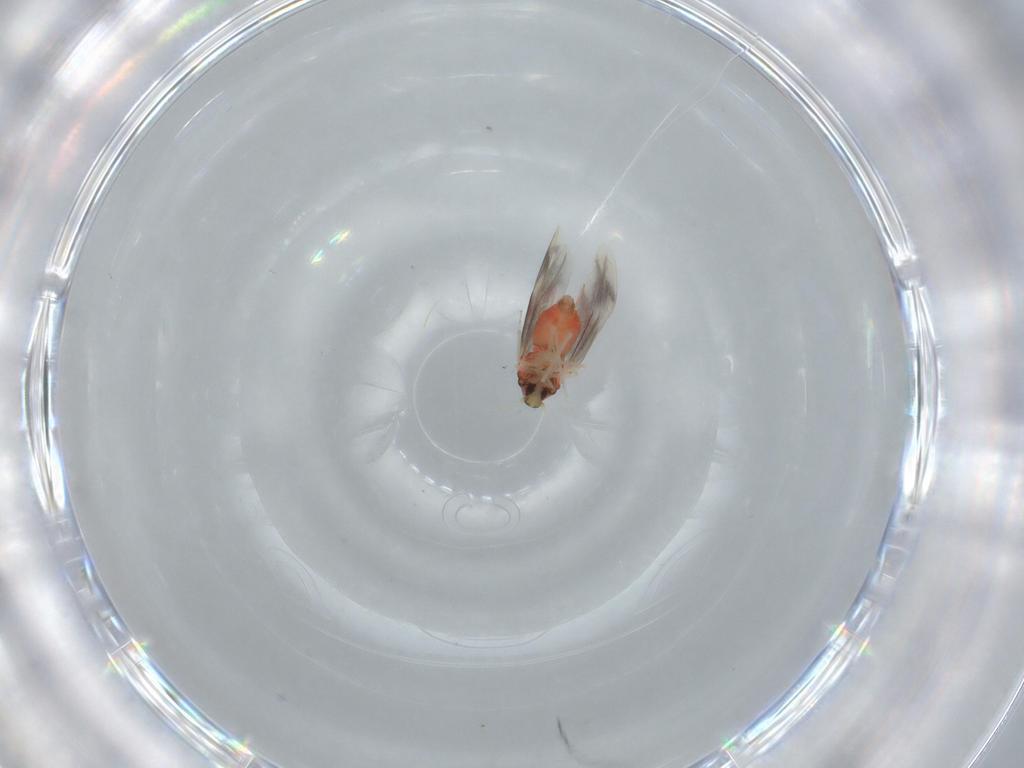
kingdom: Animalia
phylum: Arthropoda
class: Insecta
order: Hemiptera
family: Aleyrodidae
